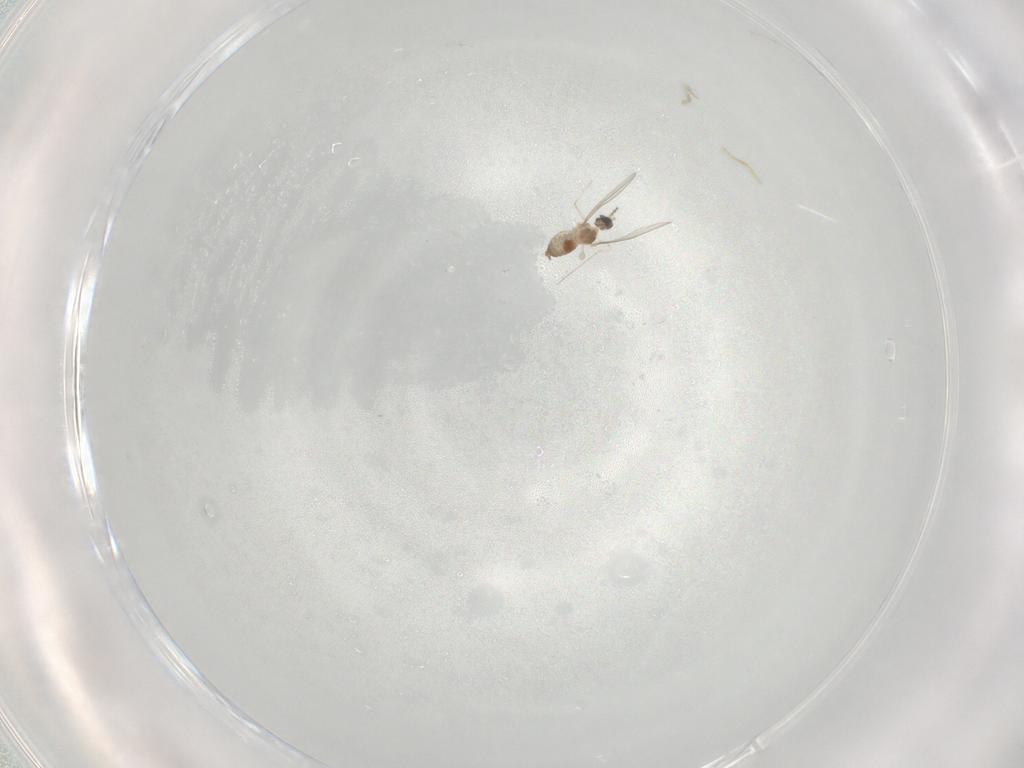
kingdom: Animalia
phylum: Arthropoda
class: Insecta
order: Diptera
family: Cecidomyiidae
